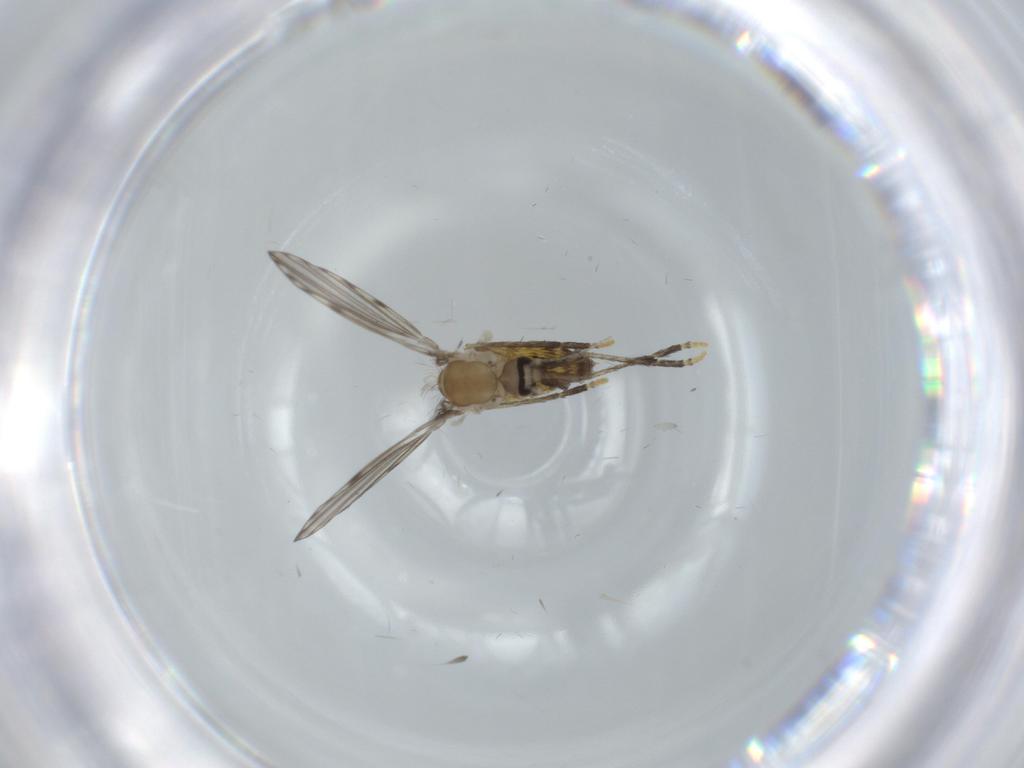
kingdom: Animalia
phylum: Arthropoda
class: Insecta
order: Diptera
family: Psychodidae
